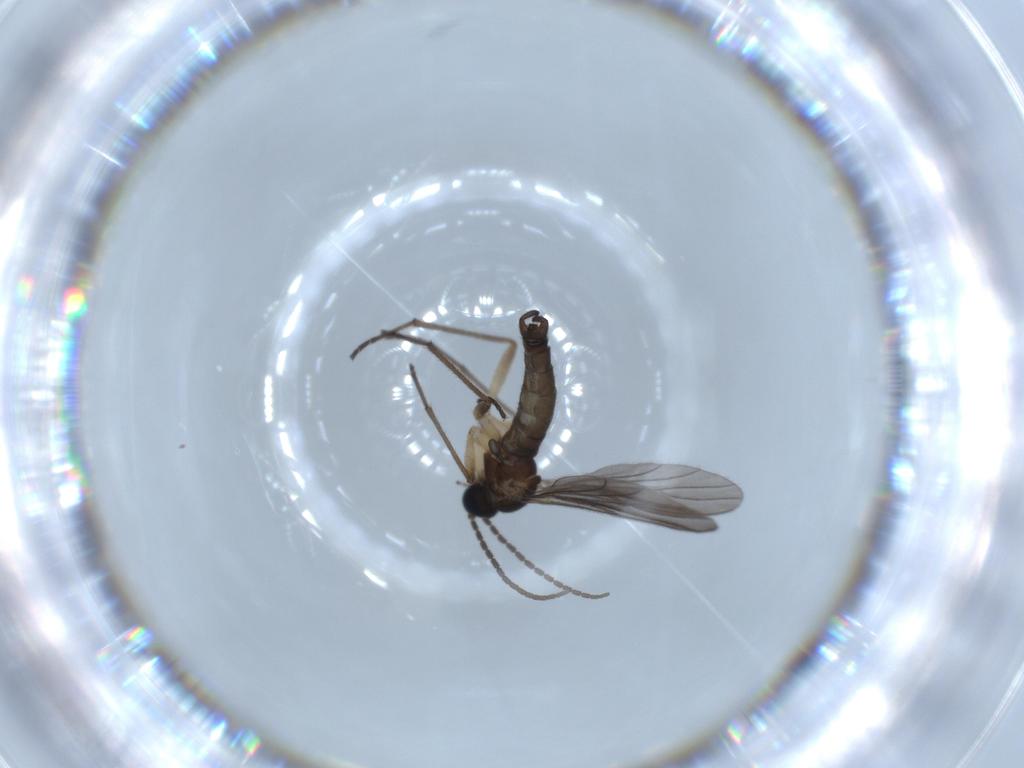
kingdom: Animalia
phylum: Arthropoda
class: Insecta
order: Diptera
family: Sciaridae
